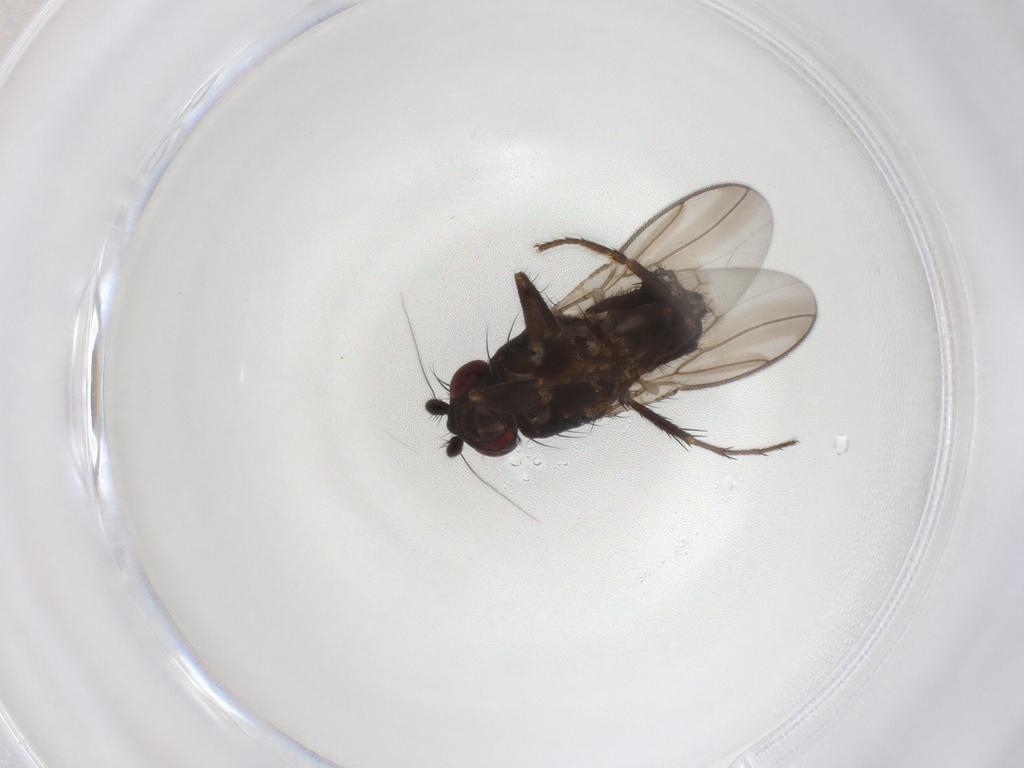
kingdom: Animalia
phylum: Arthropoda
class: Insecta
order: Diptera
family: Sphaeroceridae
